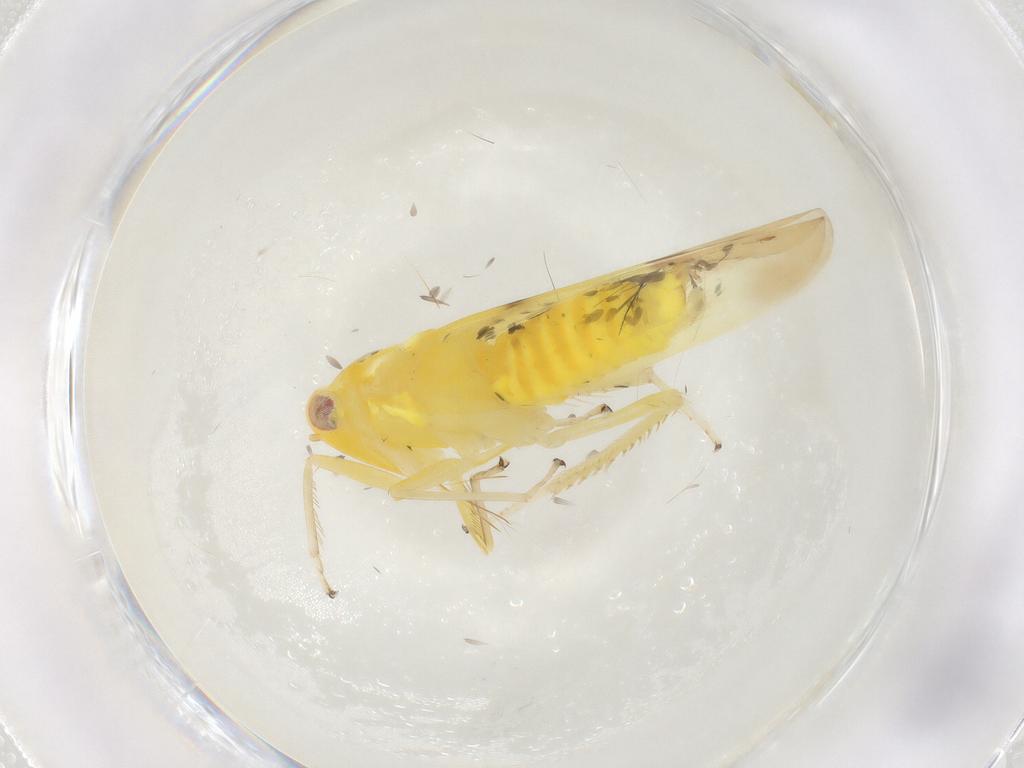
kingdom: Animalia
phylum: Arthropoda
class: Insecta
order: Hemiptera
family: Cicadellidae
